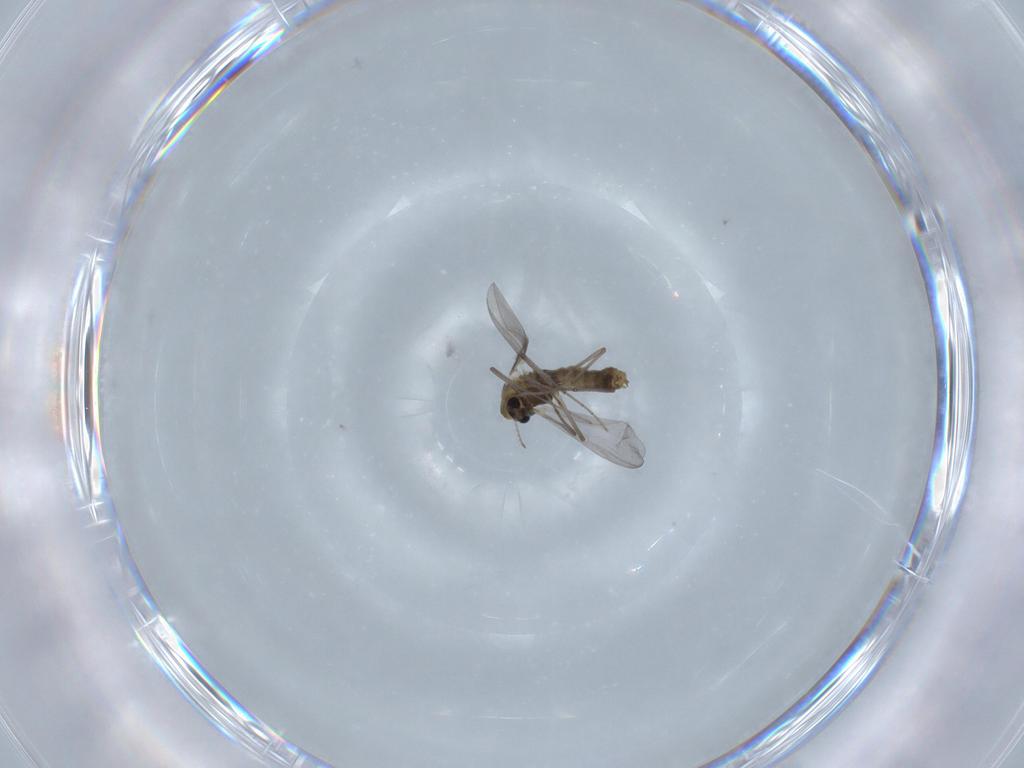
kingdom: Animalia
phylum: Arthropoda
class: Insecta
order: Diptera
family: Chironomidae
